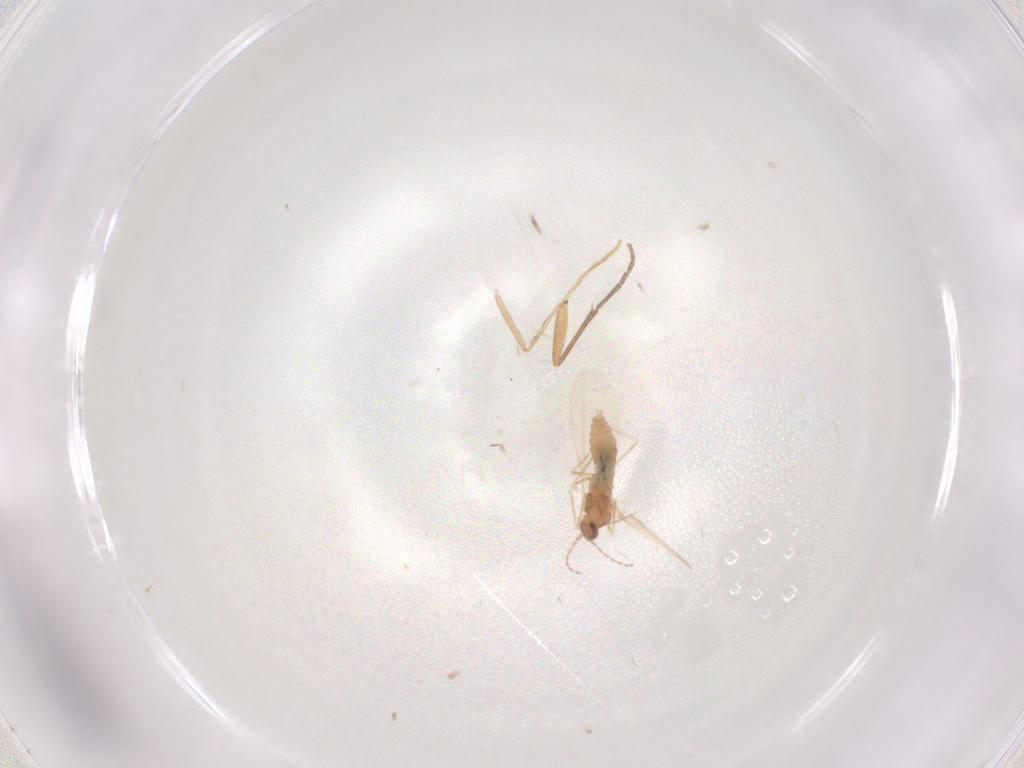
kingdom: Animalia
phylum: Arthropoda
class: Insecta
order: Diptera
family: Cecidomyiidae
